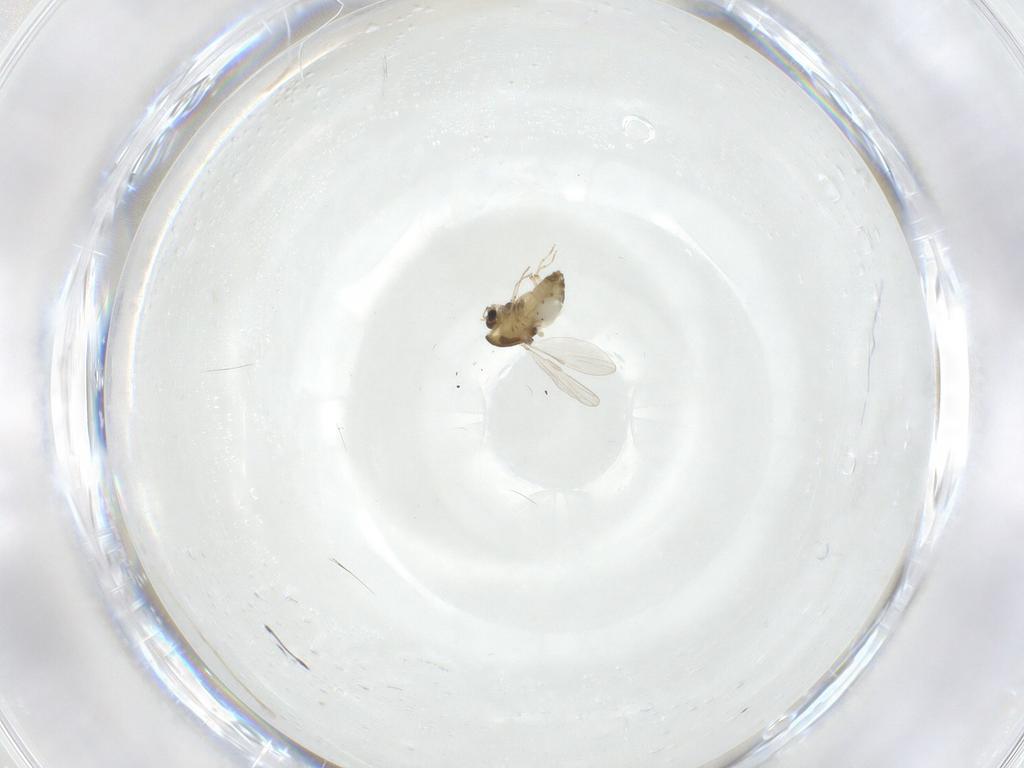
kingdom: Animalia
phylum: Arthropoda
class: Insecta
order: Diptera
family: Chironomidae
